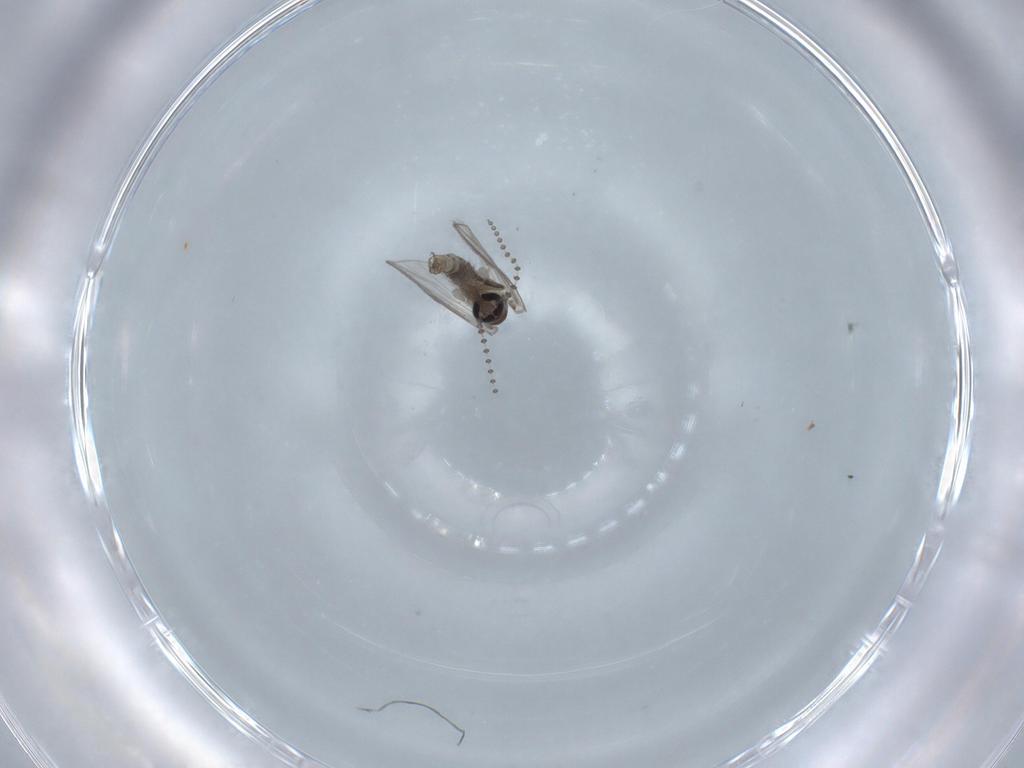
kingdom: Animalia
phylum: Arthropoda
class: Insecta
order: Diptera
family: Psychodidae
